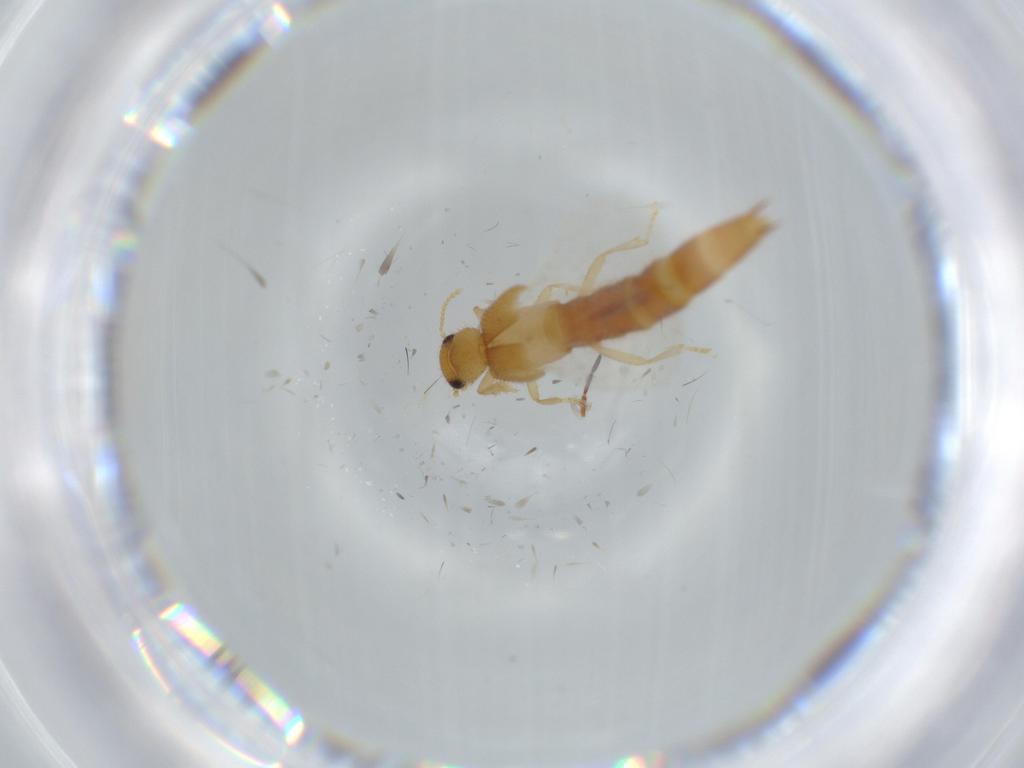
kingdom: Animalia
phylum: Arthropoda
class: Insecta
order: Coleoptera
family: Staphylinidae
